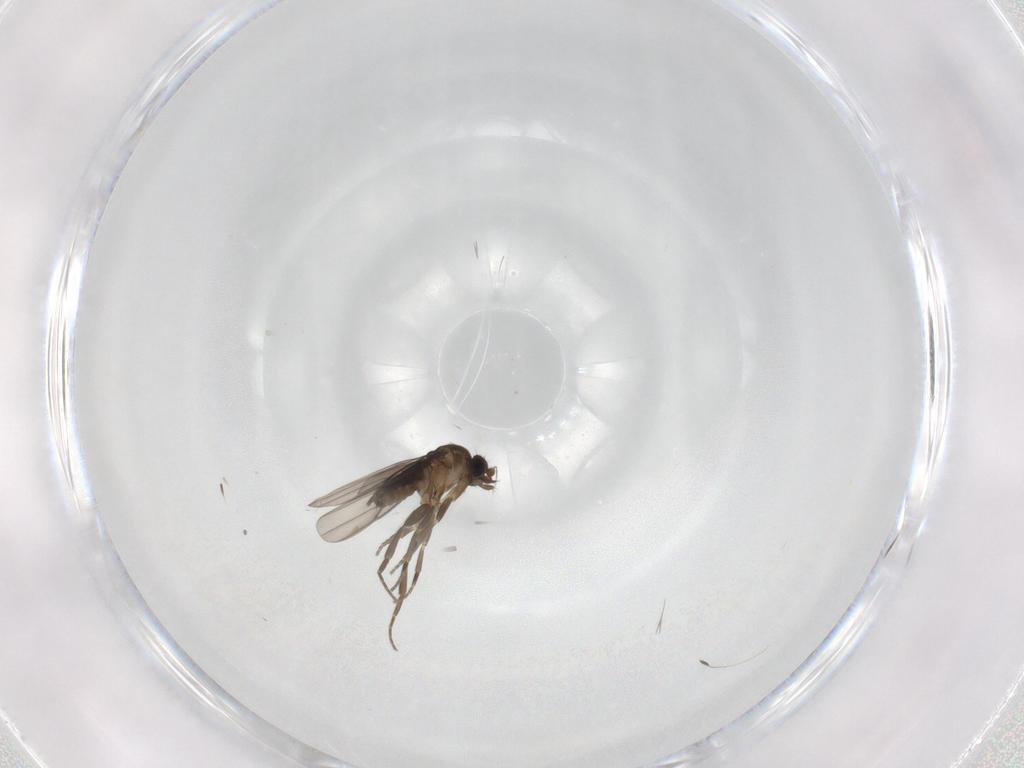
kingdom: Animalia
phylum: Arthropoda
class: Insecta
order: Diptera
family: Phoridae
